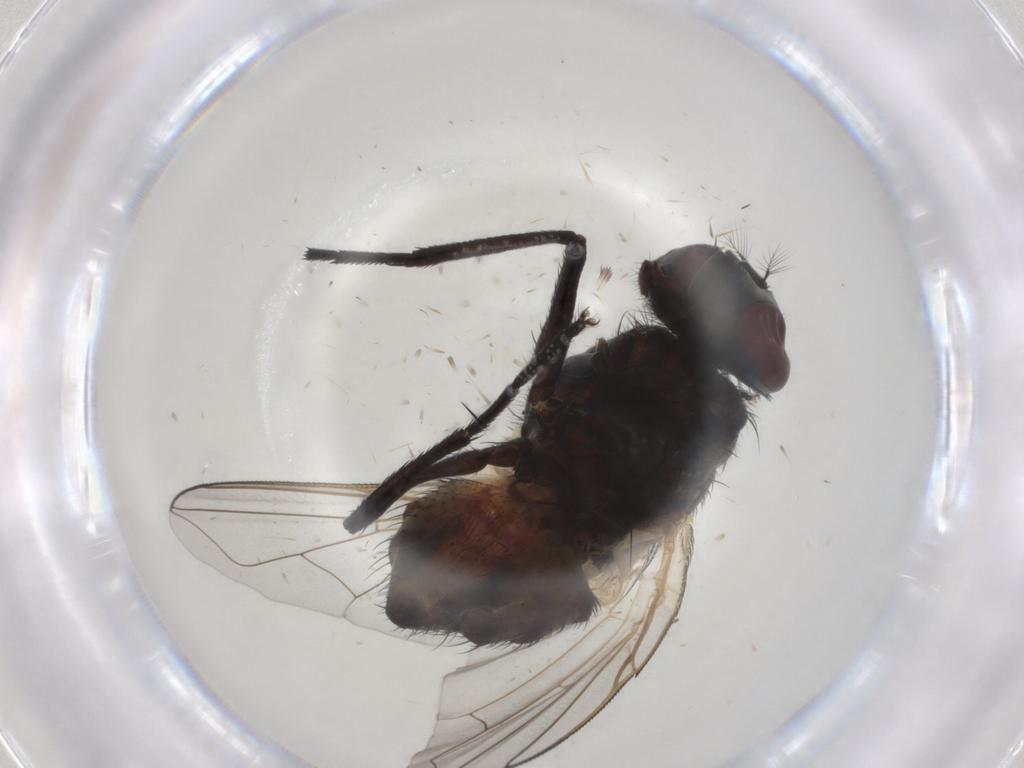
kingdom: Animalia
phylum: Arthropoda
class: Insecta
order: Diptera
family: Muscidae
